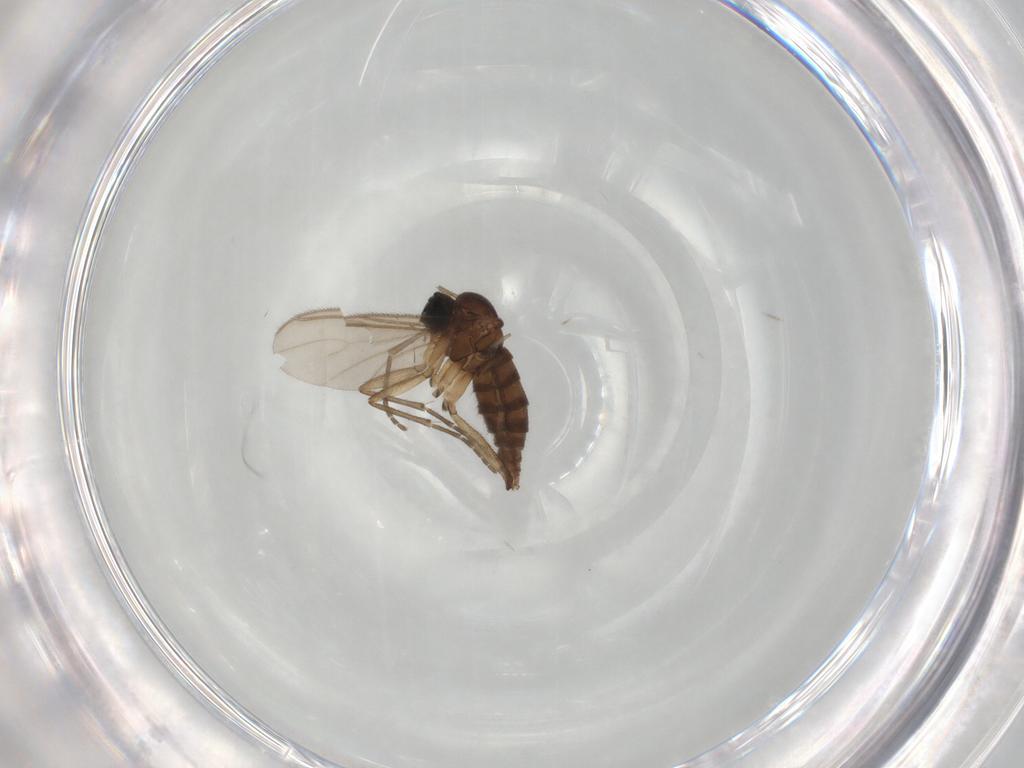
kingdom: Animalia
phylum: Arthropoda
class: Insecta
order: Diptera
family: Sciaridae
